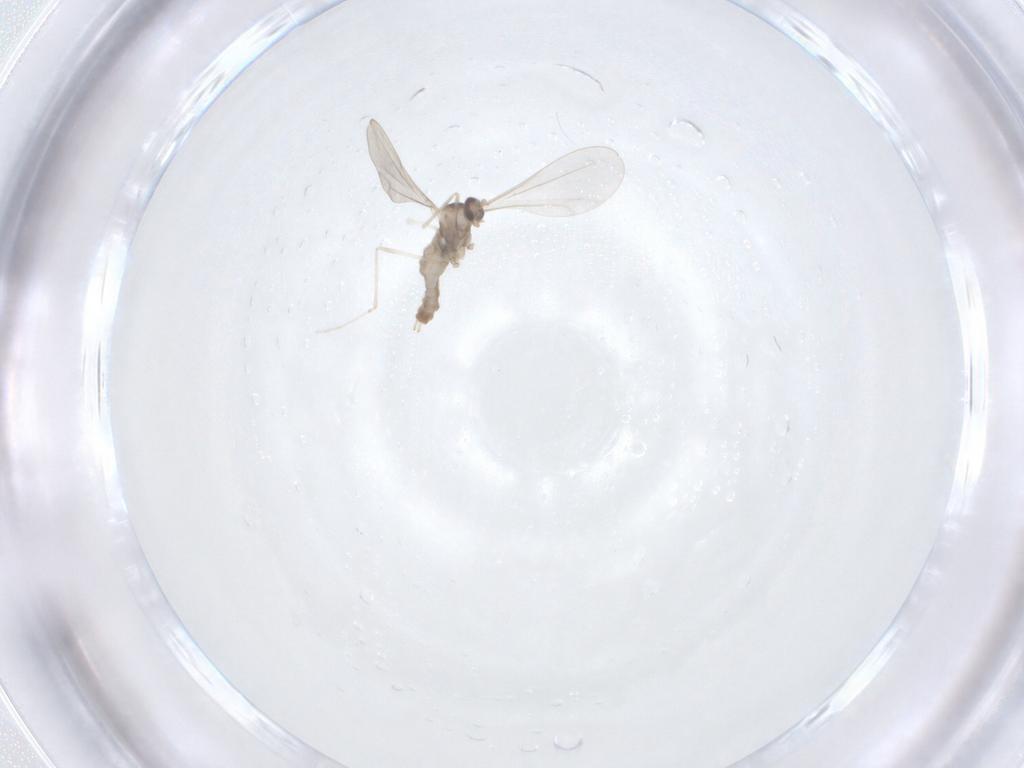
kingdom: Animalia
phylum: Arthropoda
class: Insecta
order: Diptera
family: Cecidomyiidae
